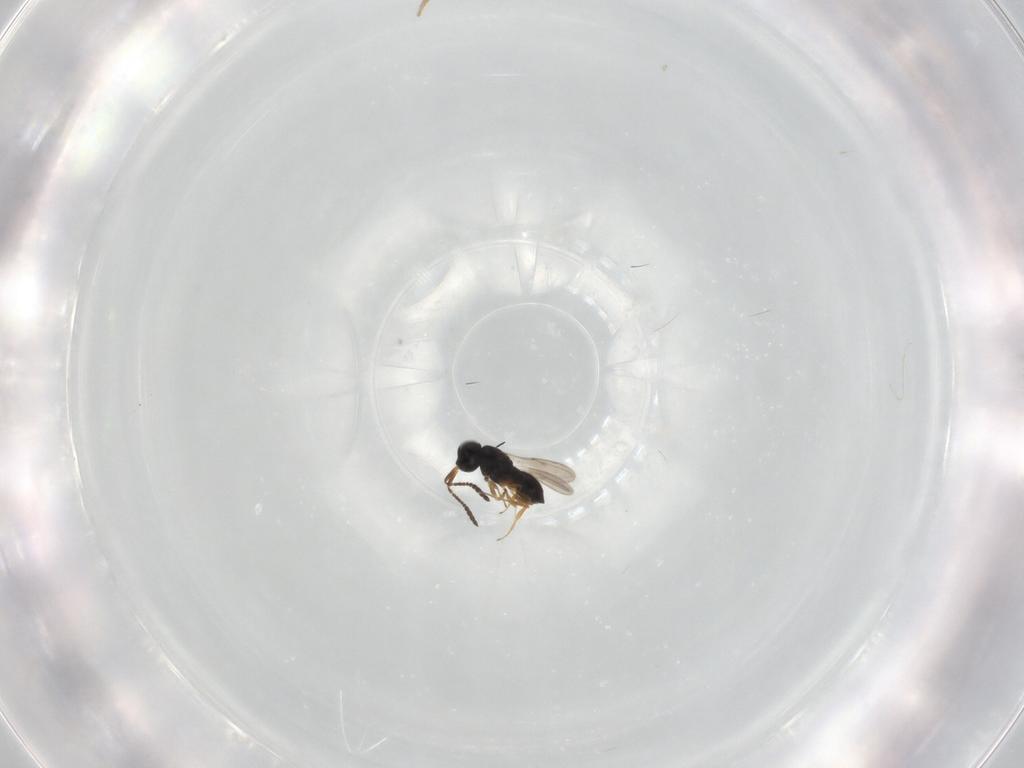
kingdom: Animalia
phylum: Arthropoda
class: Insecta
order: Hymenoptera
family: Scelionidae
